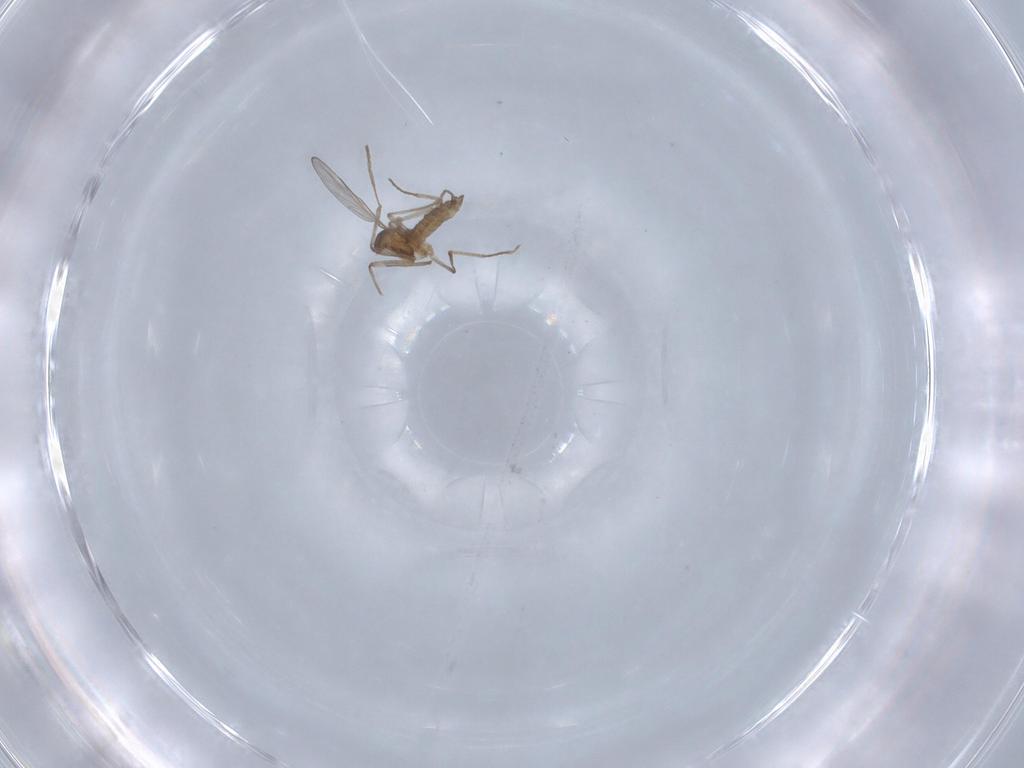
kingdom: Animalia
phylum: Arthropoda
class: Insecta
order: Diptera
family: Cecidomyiidae
